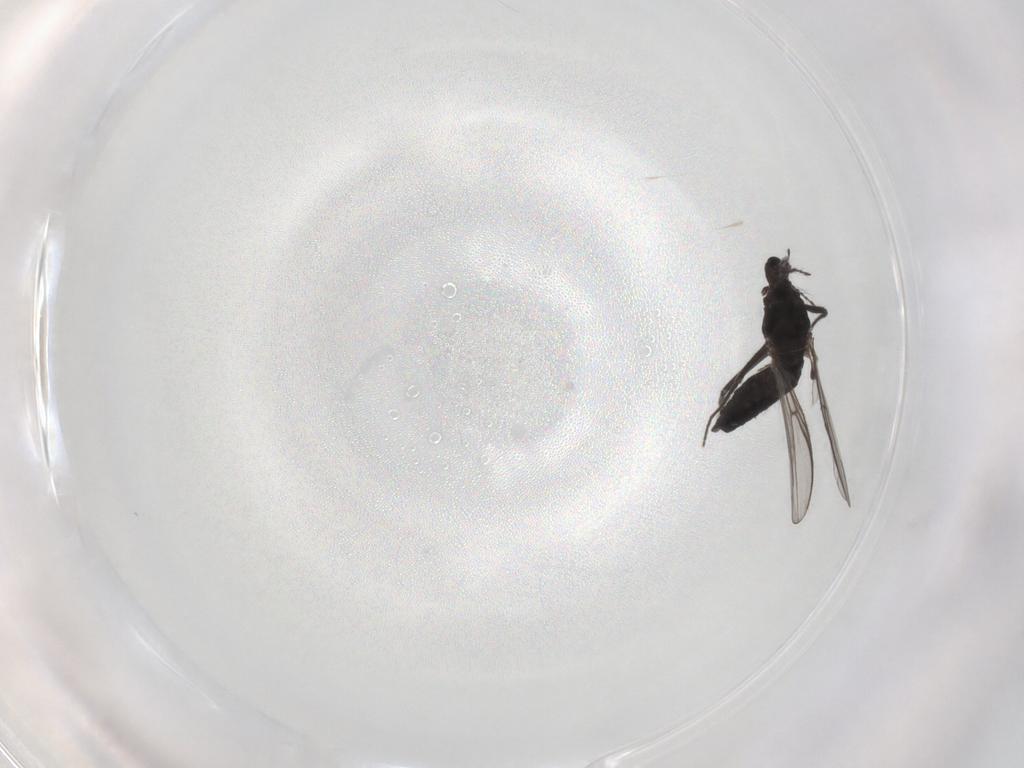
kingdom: Animalia
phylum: Arthropoda
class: Insecta
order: Diptera
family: Chironomidae
